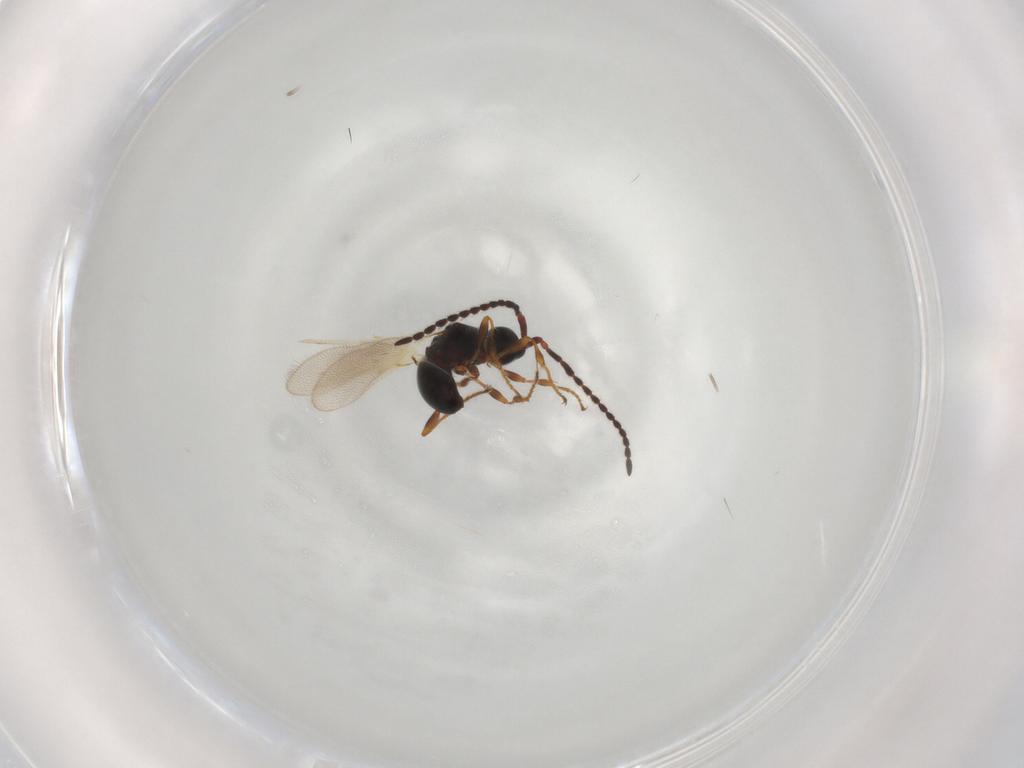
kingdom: Animalia
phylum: Arthropoda
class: Insecta
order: Hymenoptera
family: Diapriidae
